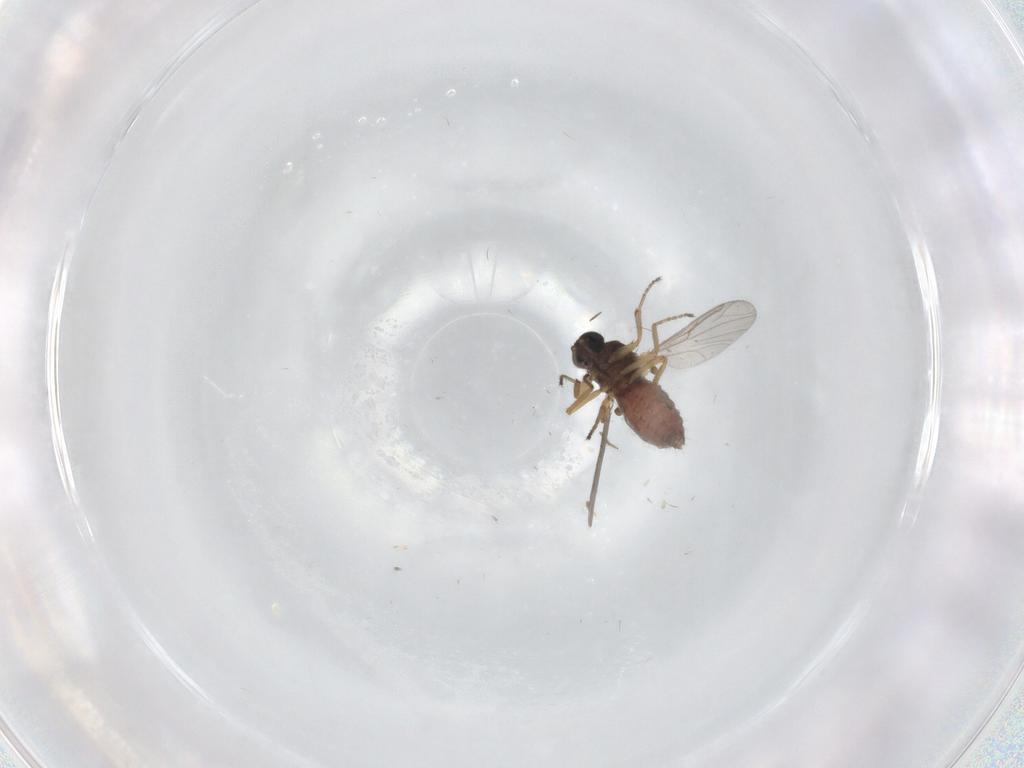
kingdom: Animalia
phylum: Arthropoda
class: Insecta
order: Diptera
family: Ceratopogonidae
